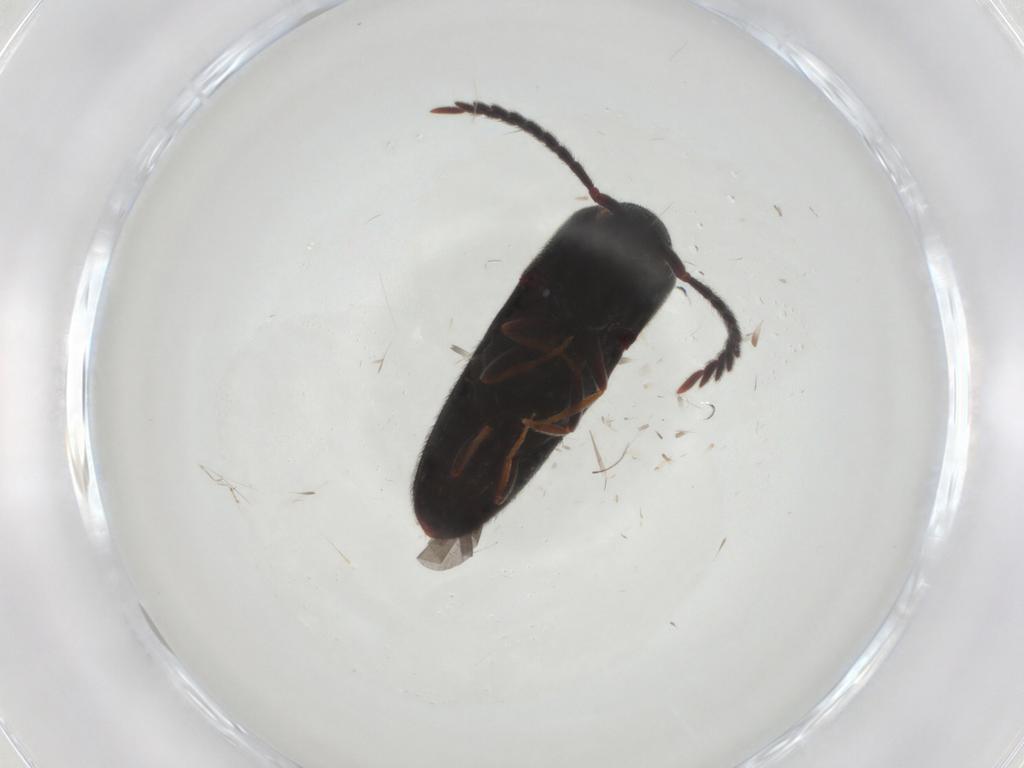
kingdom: Animalia
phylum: Arthropoda
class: Insecta
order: Coleoptera
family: Eucnemidae
